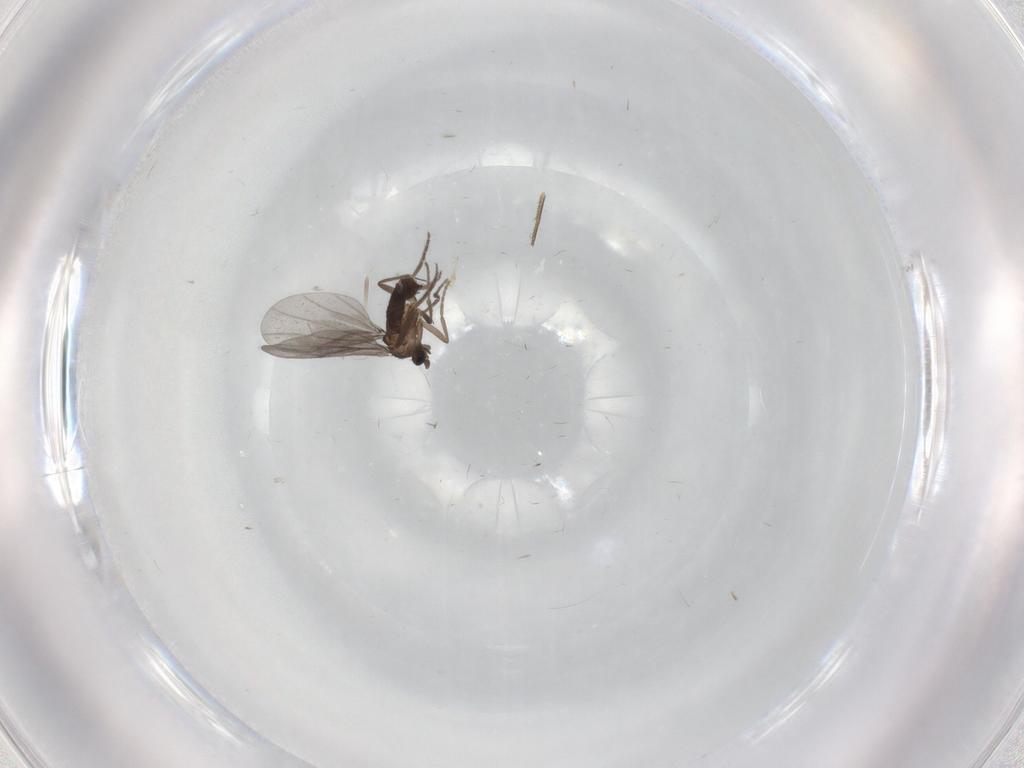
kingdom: Animalia
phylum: Arthropoda
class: Insecta
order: Diptera
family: Phoridae
